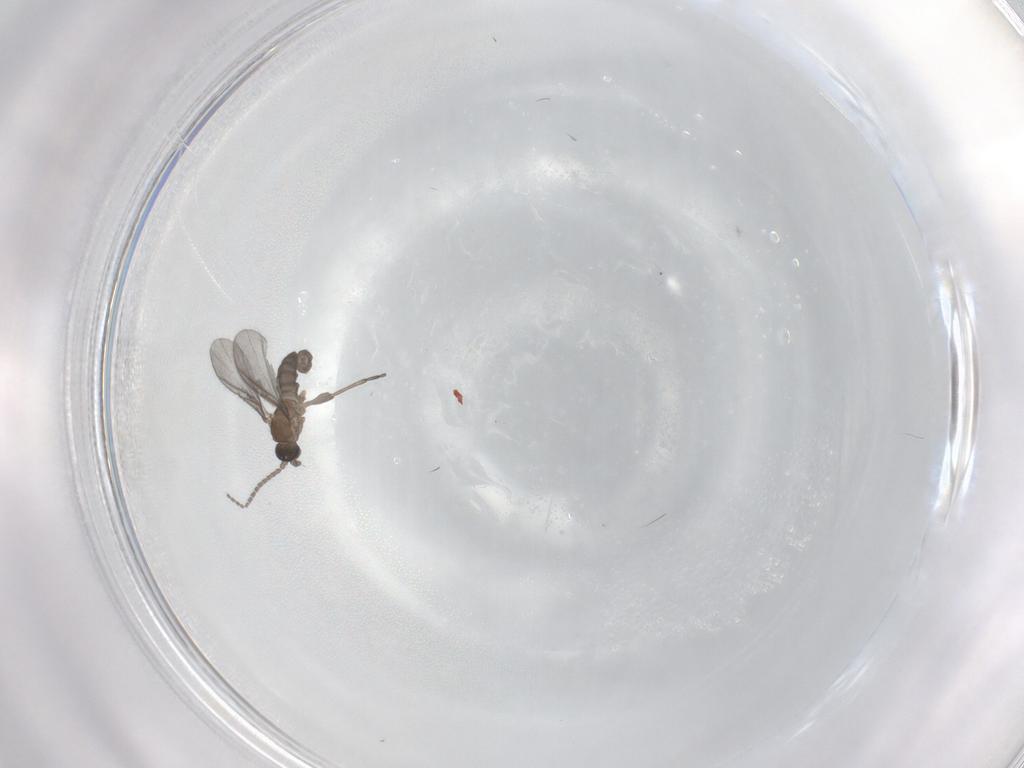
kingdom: Animalia
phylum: Arthropoda
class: Insecta
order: Diptera
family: Sciaridae
